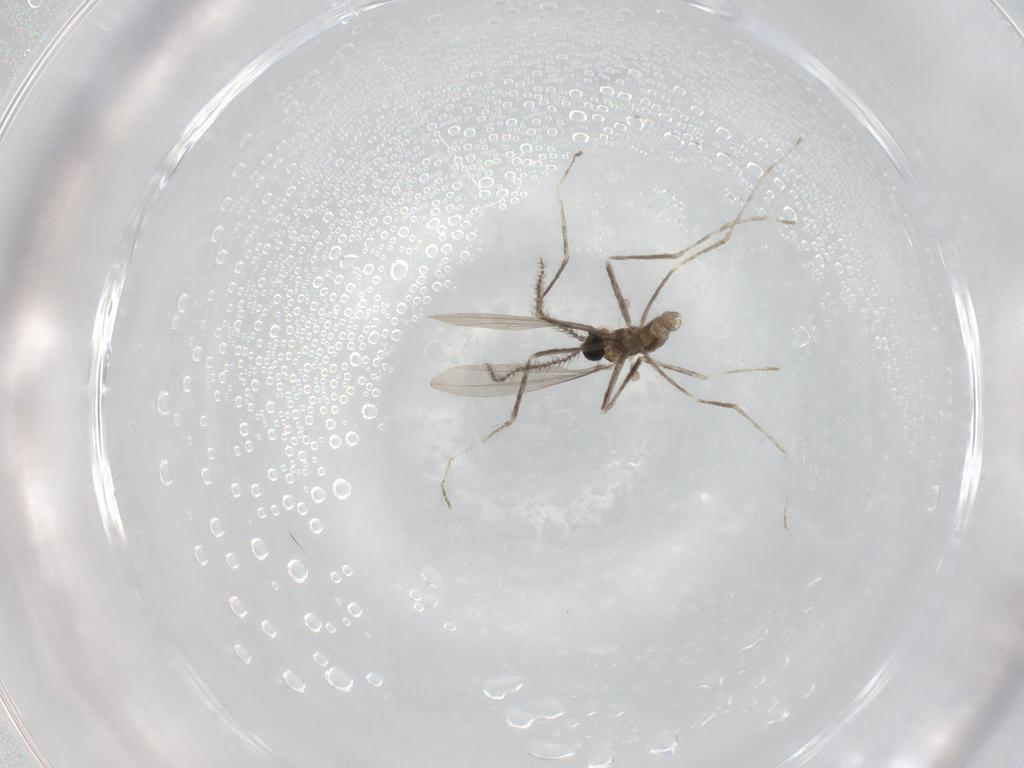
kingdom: Animalia
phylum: Arthropoda
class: Insecta
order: Diptera
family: Cecidomyiidae
